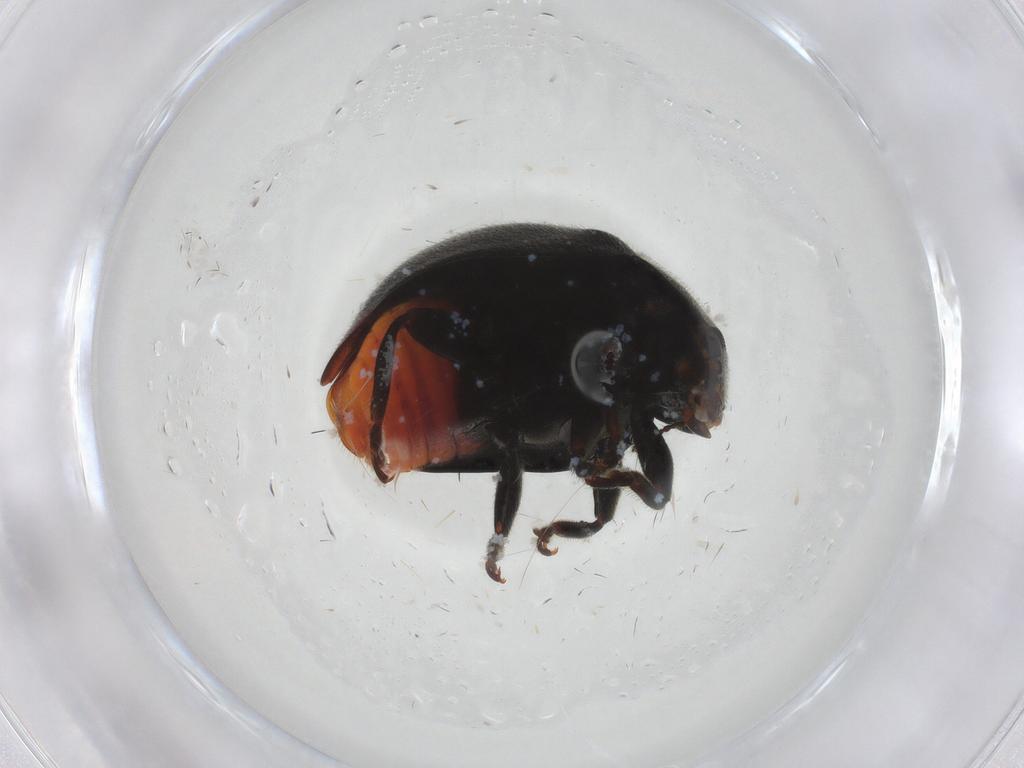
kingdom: Animalia
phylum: Arthropoda
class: Insecta
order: Coleoptera
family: Coccinellidae
